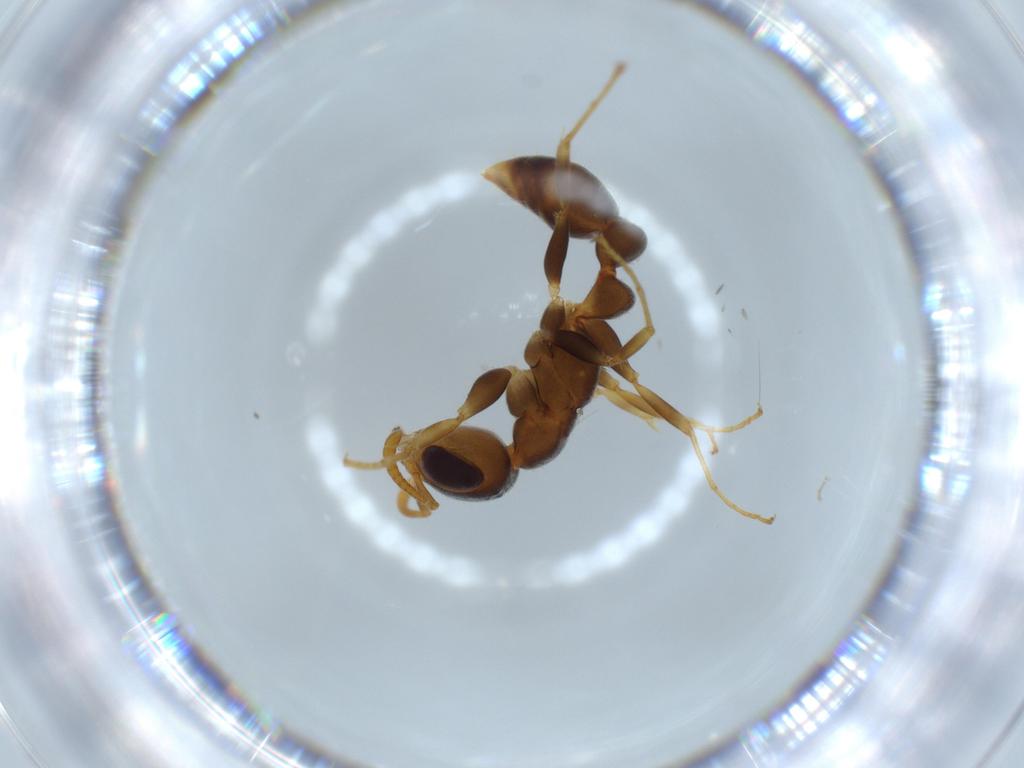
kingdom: Animalia
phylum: Arthropoda
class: Insecta
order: Hymenoptera
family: Formicidae
